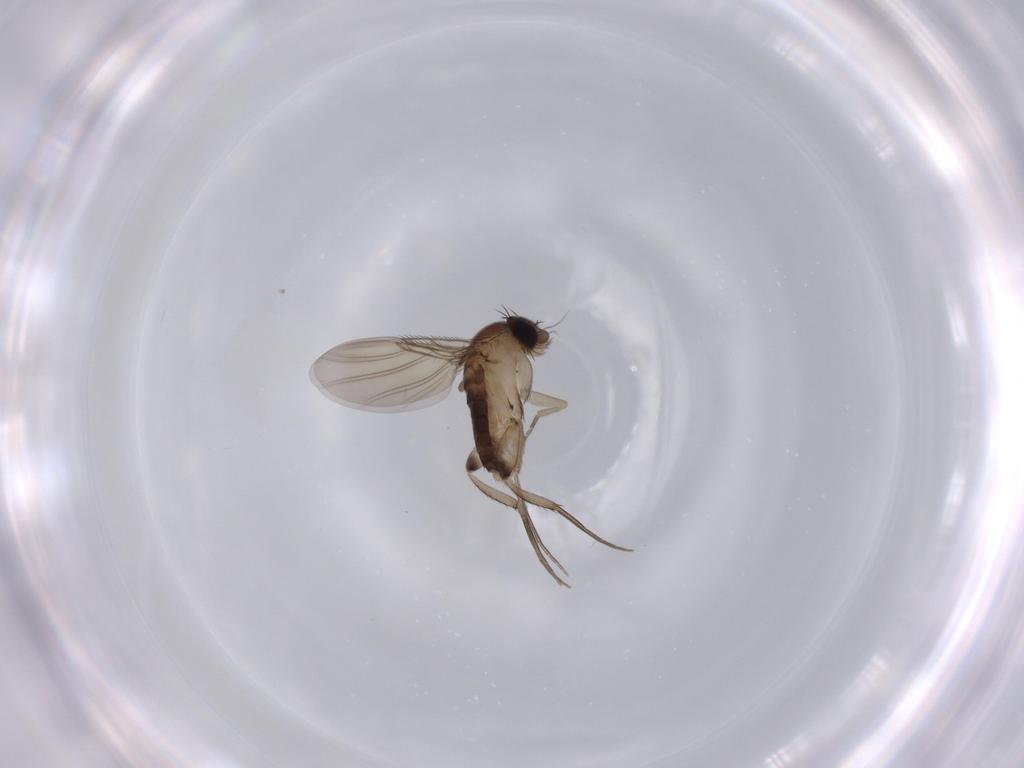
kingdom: Animalia
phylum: Arthropoda
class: Insecta
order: Diptera
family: Phoridae
